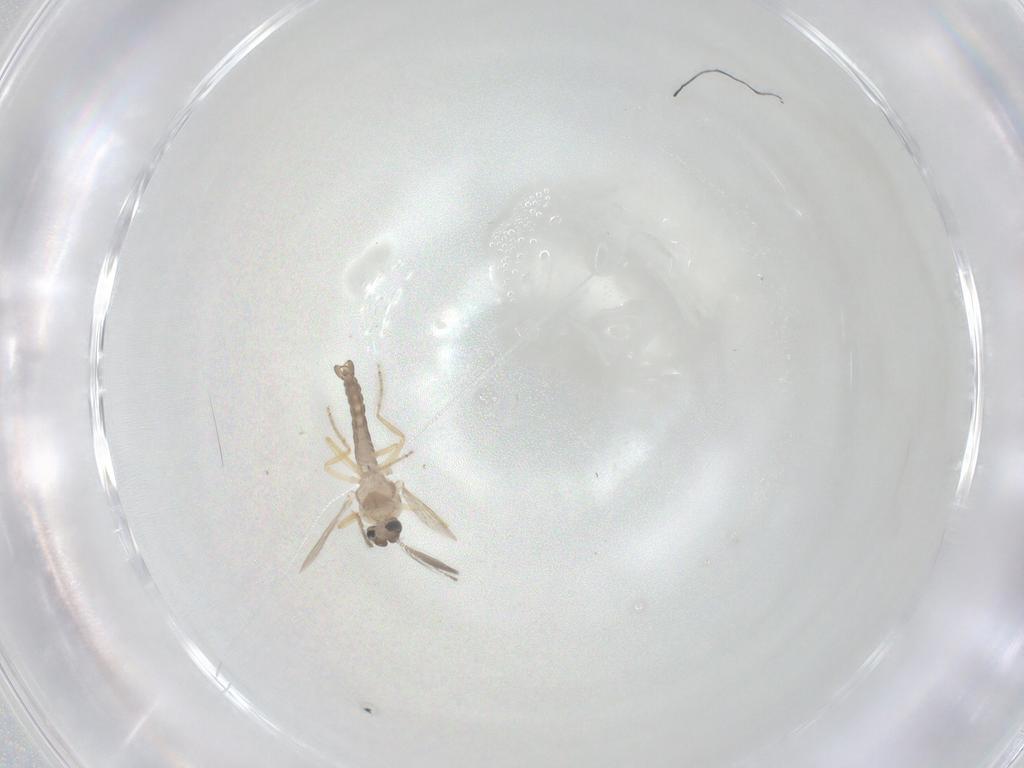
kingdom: Animalia
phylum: Arthropoda
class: Insecta
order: Diptera
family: Ceratopogonidae
